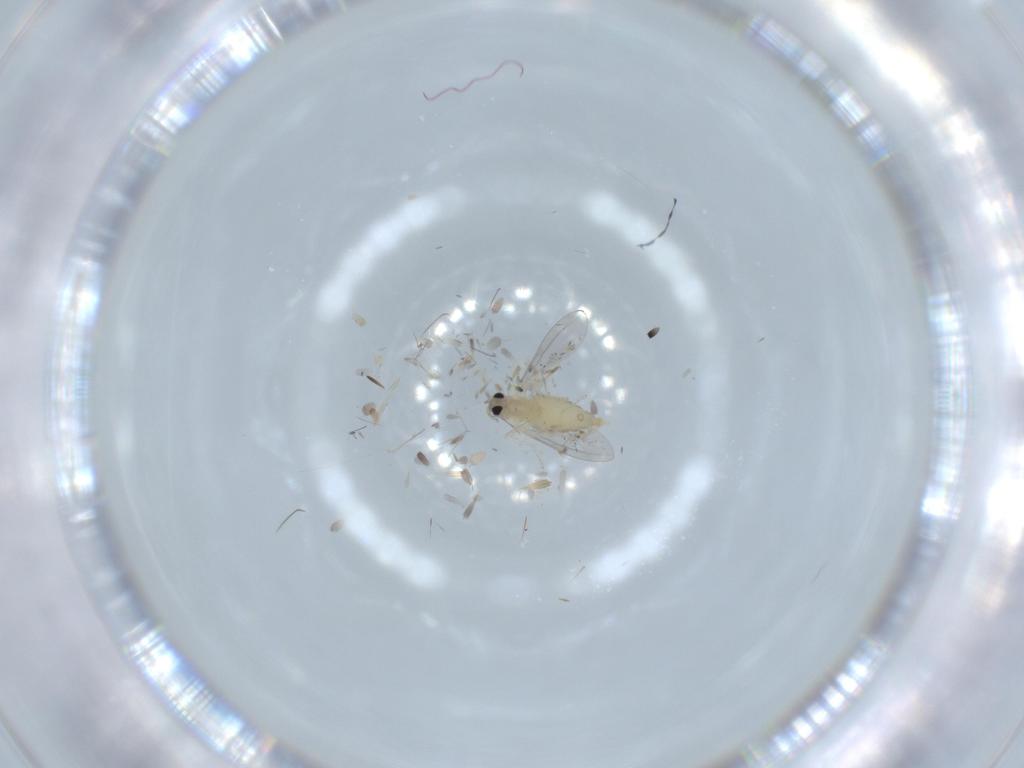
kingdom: Animalia
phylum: Arthropoda
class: Insecta
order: Diptera
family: Cecidomyiidae
